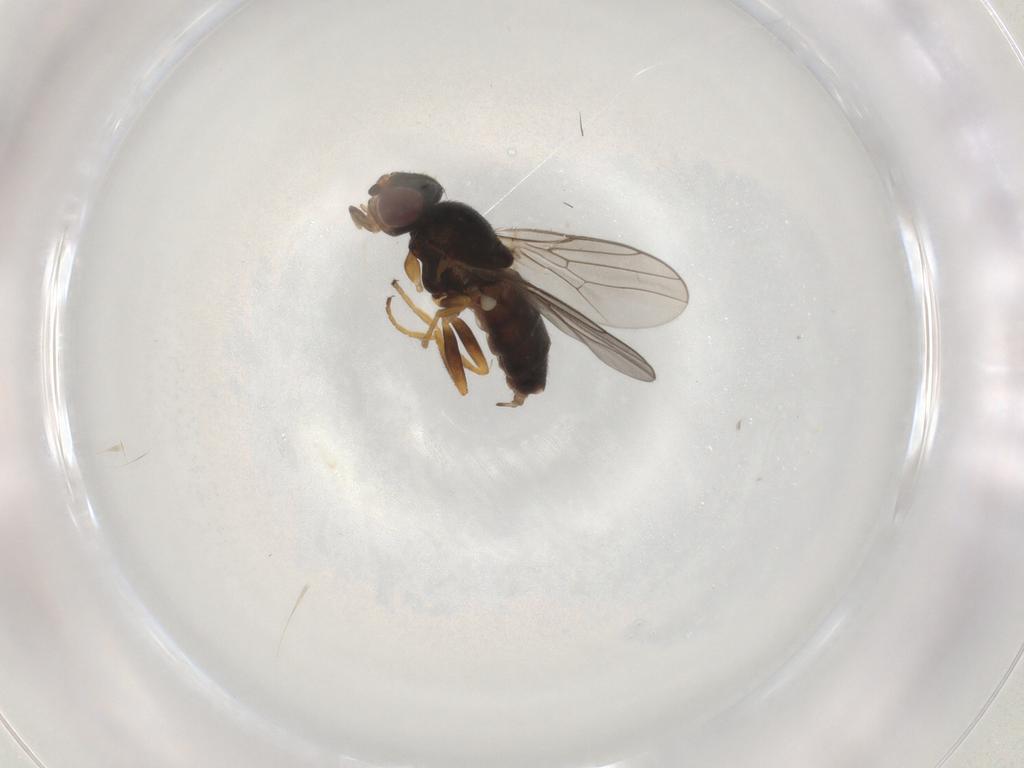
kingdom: Animalia
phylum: Arthropoda
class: Insecta
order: Diptera
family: Chloropidae
